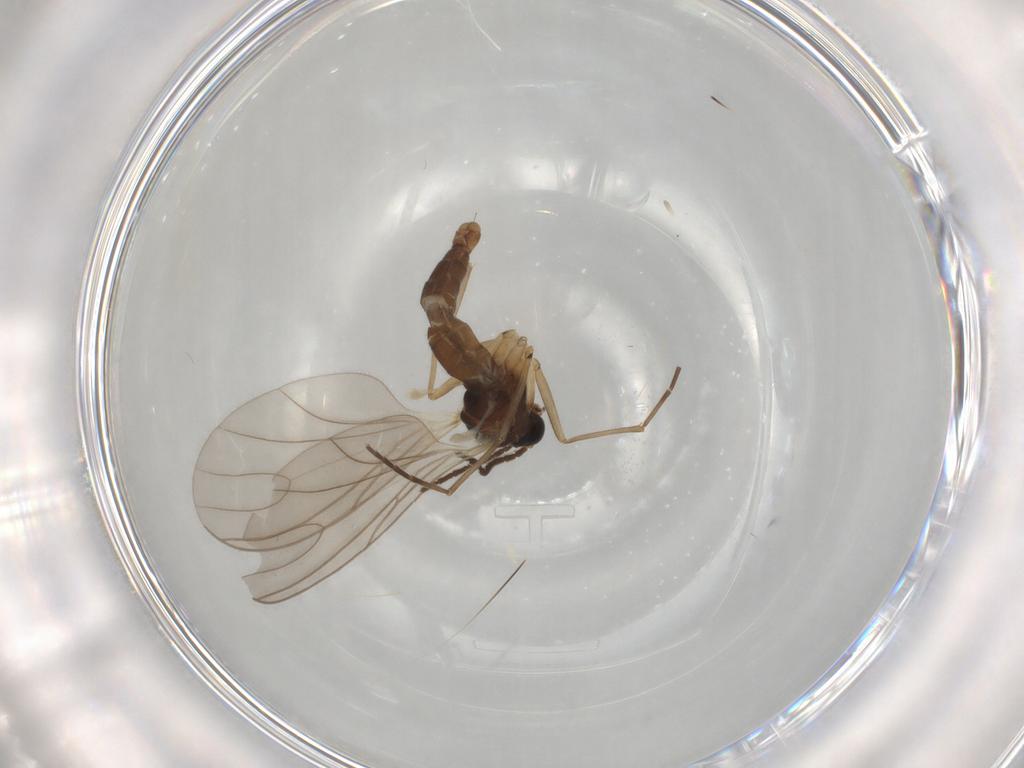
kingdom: Animalia
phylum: Arthropoda
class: Insecta
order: Diptera
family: Sciaridae
